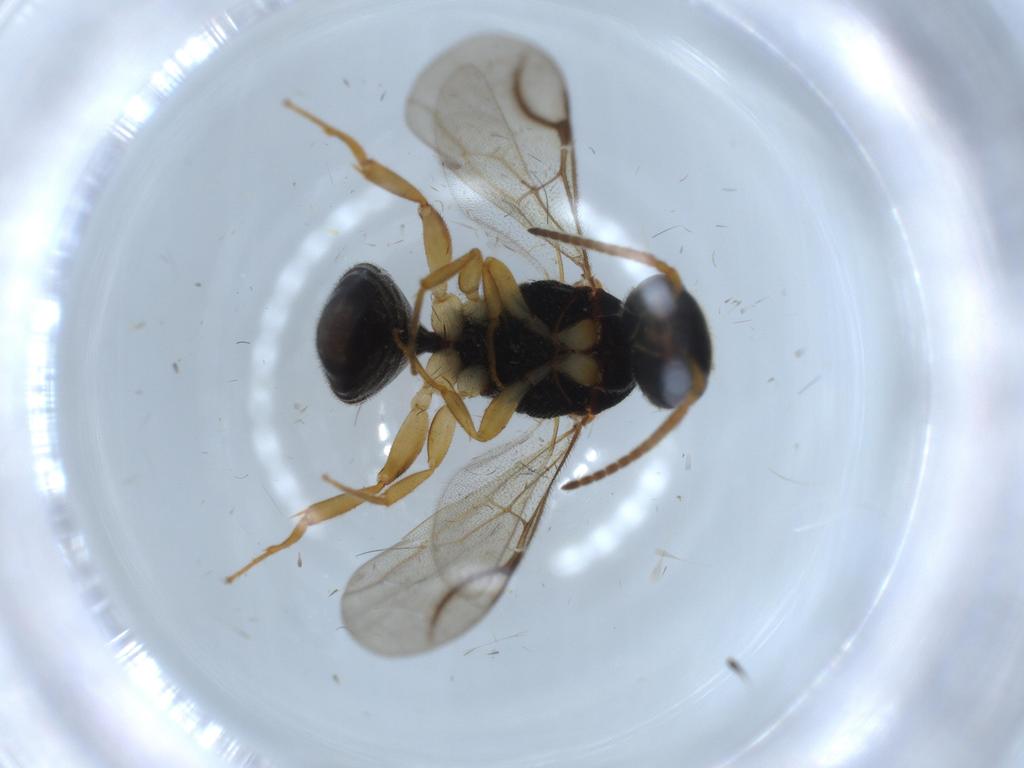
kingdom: Animalia
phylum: Arthropoda
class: Insecta
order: Hymenoptera
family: Bethylidae
